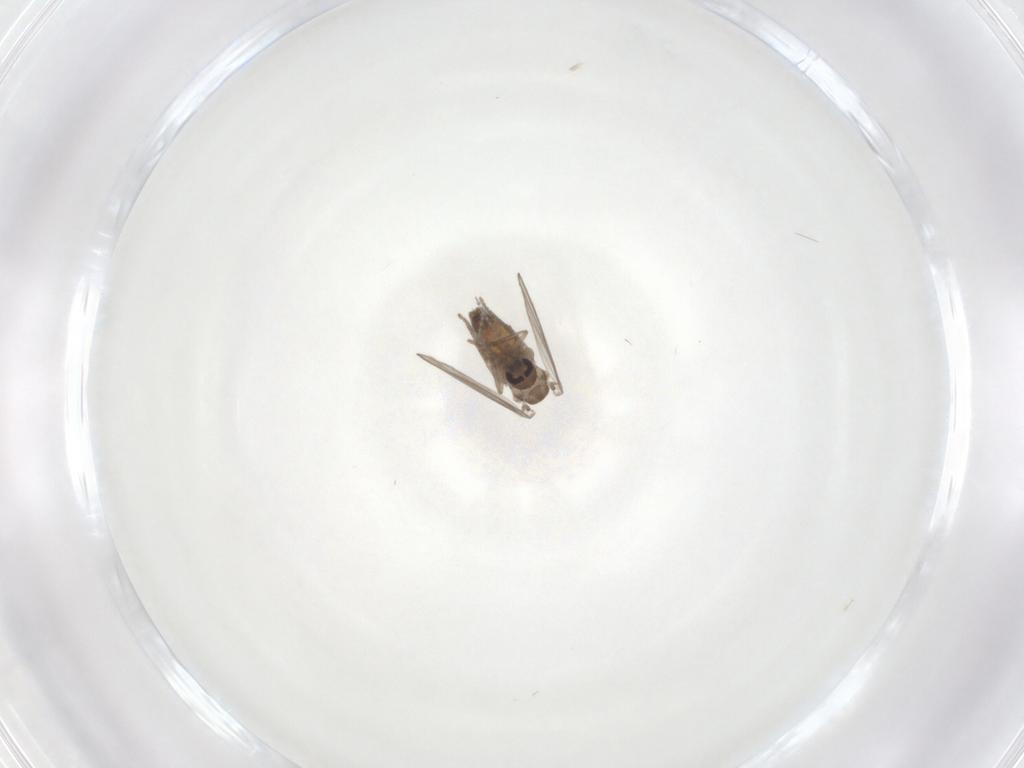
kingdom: Animalia
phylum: Arthropoda
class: Insecta
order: Diptera
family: Psychodidae
